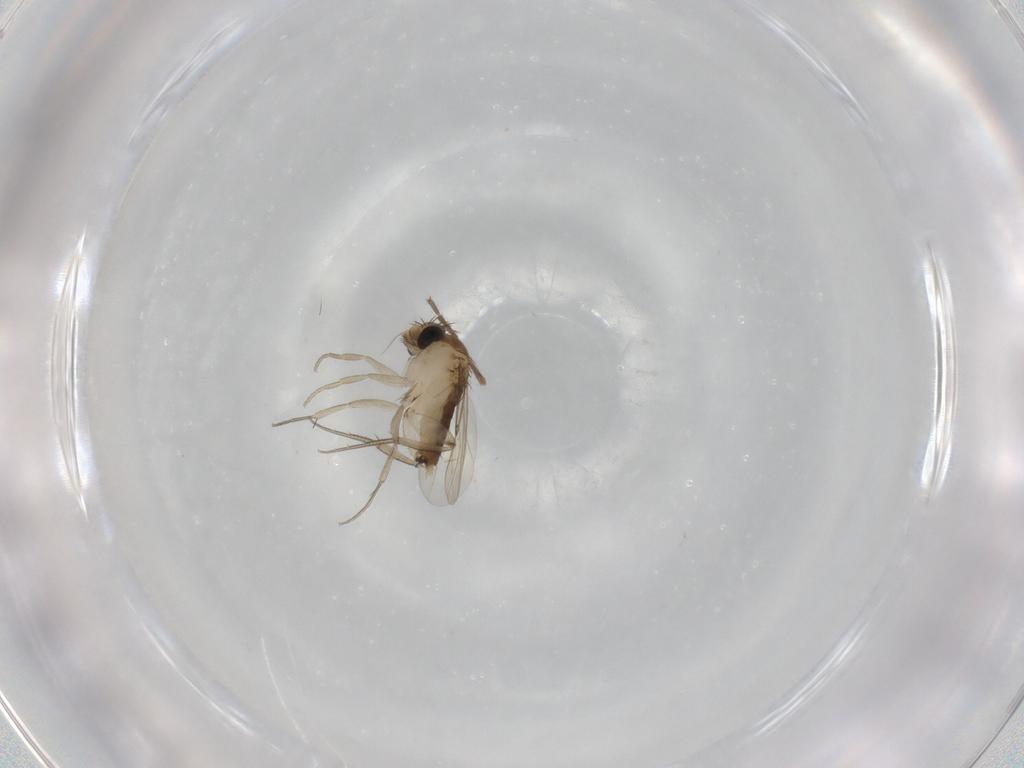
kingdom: Animalia
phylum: Arthropoda
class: Insecta
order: Diptera
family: Phoridae
